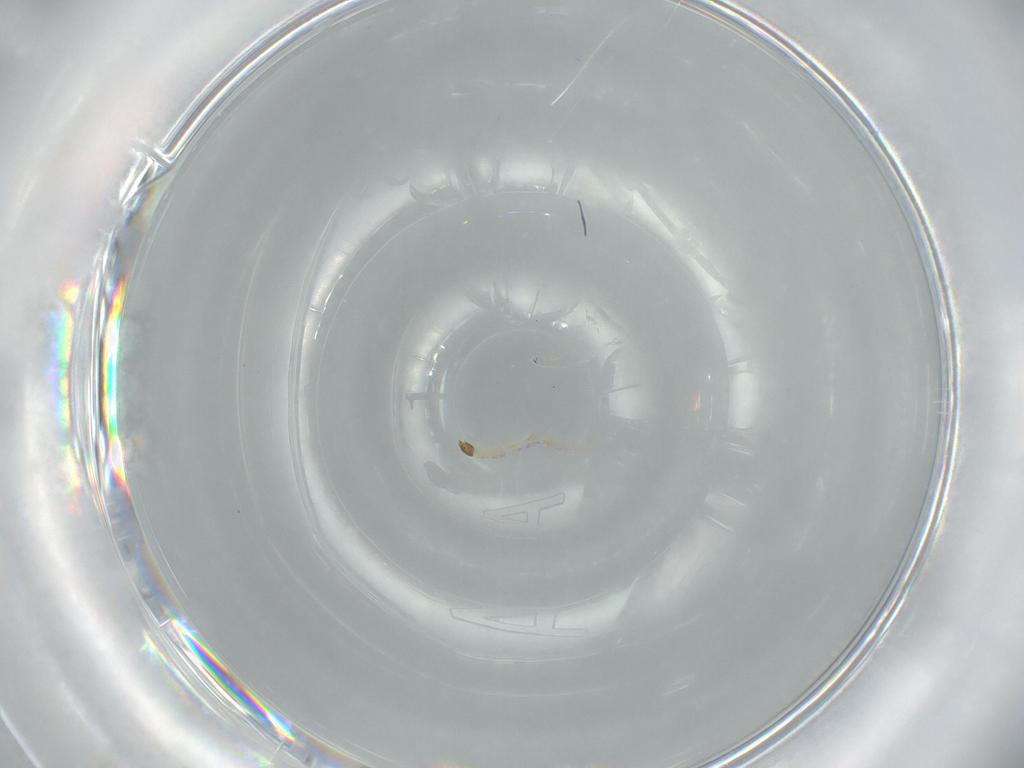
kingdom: Animalia
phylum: Arthropoda
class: Insecta
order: Diptera
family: Chironomidae
